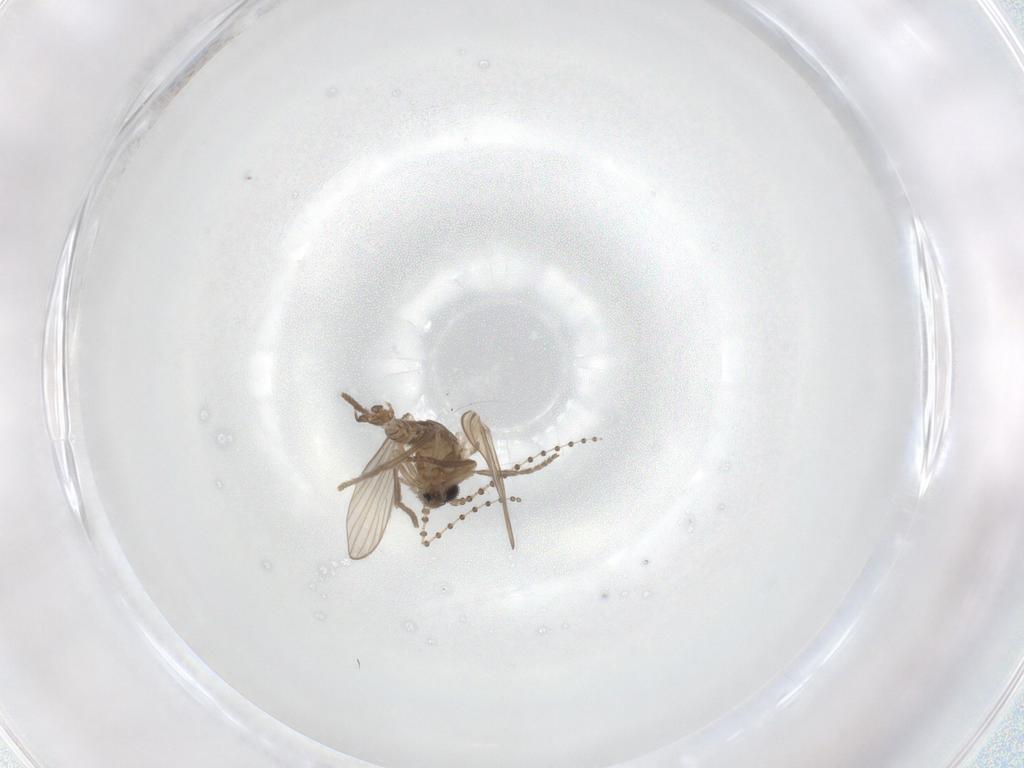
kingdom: Animalia
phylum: Arthropoda
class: Insecta
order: Diptera
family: Psychodidae
